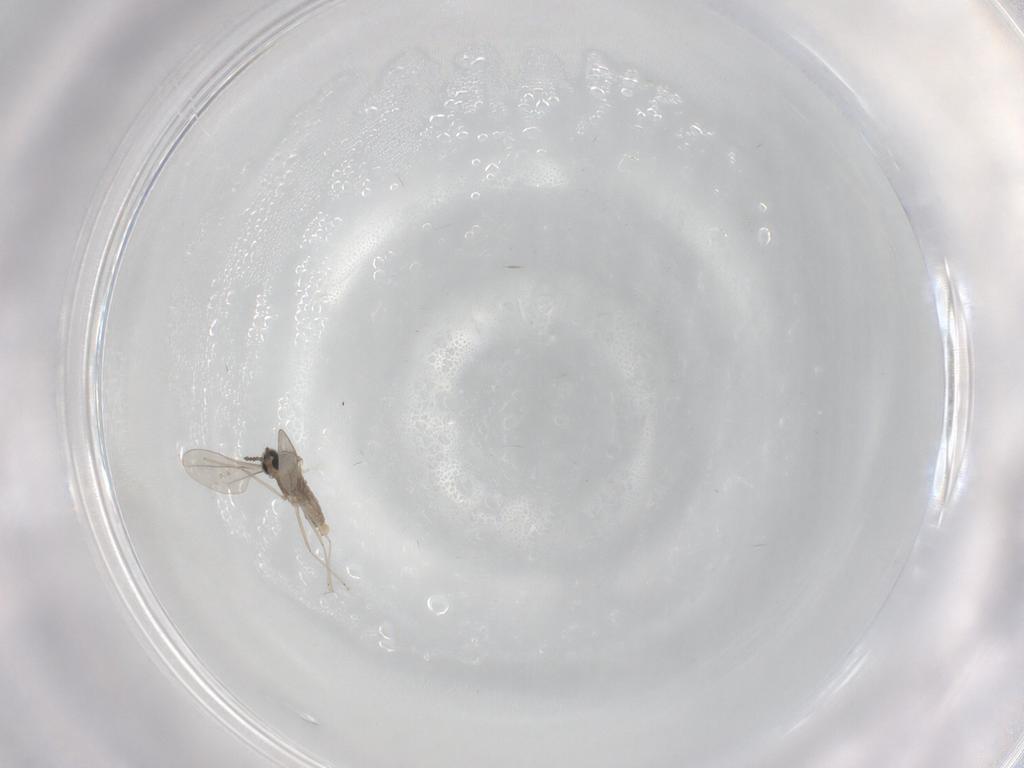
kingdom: Animalia
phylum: Arthropoda
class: Insecta
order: Diptera
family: Cecidomyiidae
